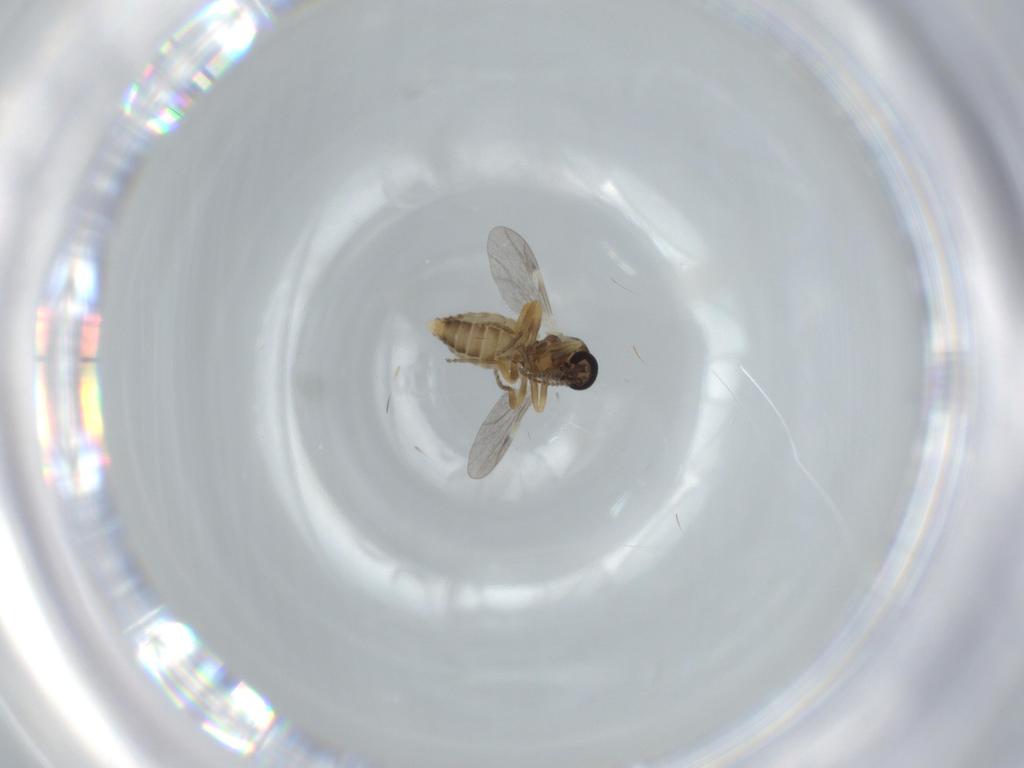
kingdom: Animalia
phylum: Arthropoda
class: Insecta
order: Diptera
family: Ceratopogonidae
